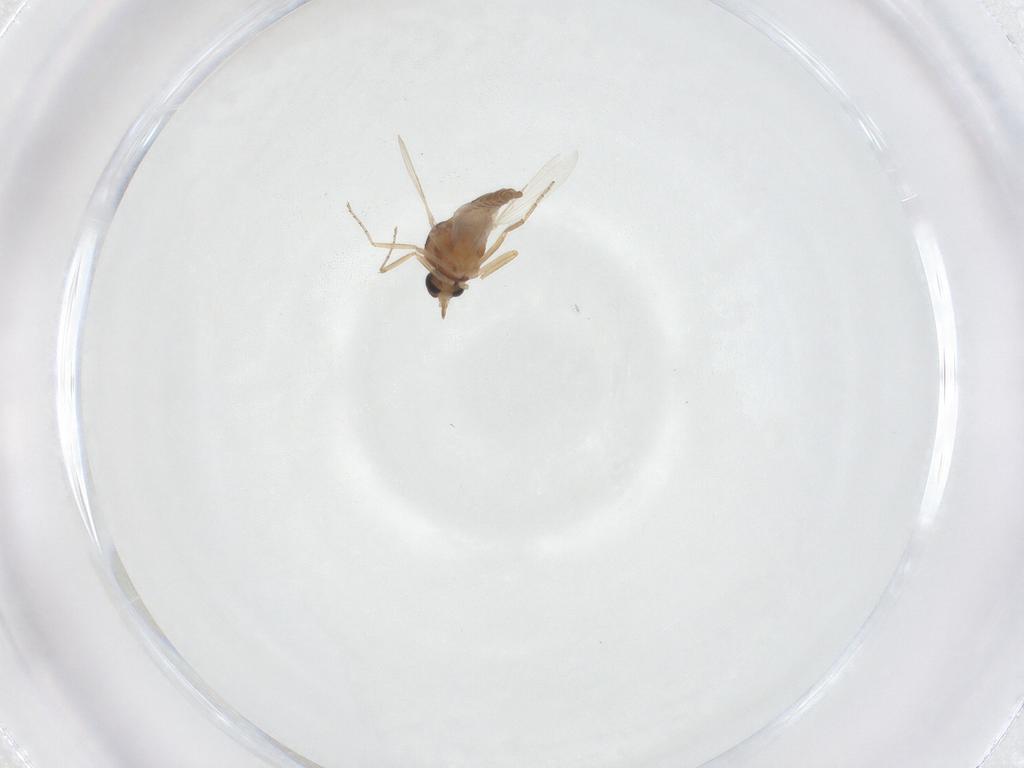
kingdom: Animalia
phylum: Arthropoda
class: Insecta
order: Diptera
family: Ceratopogonidae
